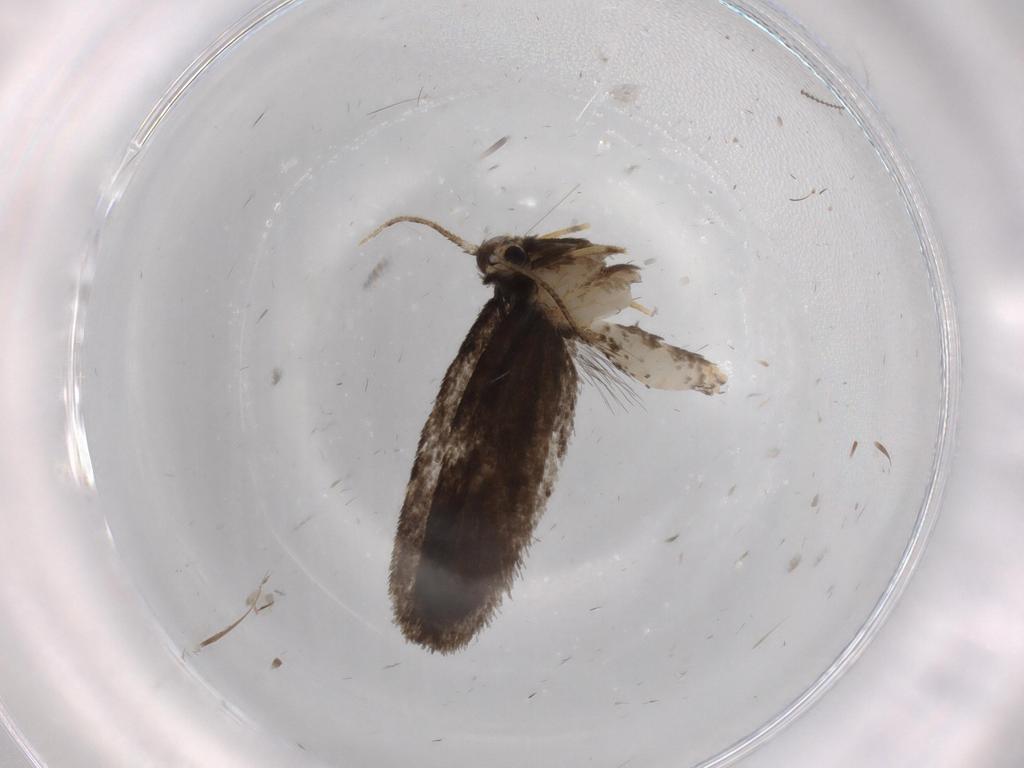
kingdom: Animalia
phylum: Arthropoda
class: Insecta
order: Lepidoptera
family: Psychidae
